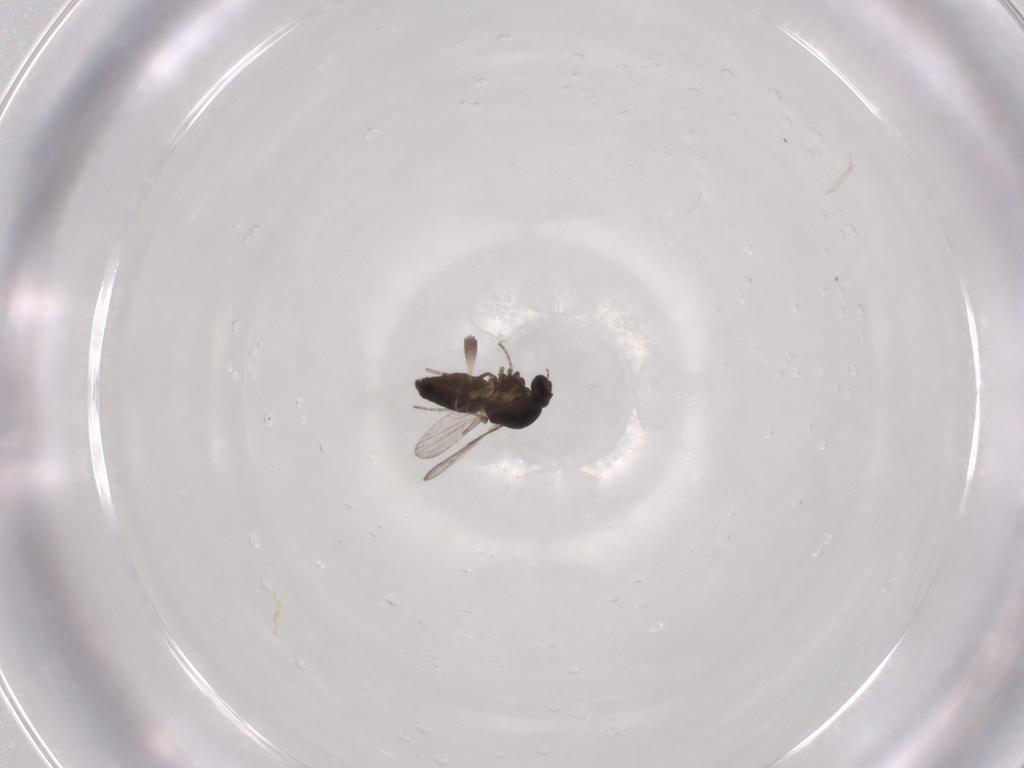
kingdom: Animalia
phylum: Arthropoda
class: Insecta
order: Diptera
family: Ceratopogonidae
